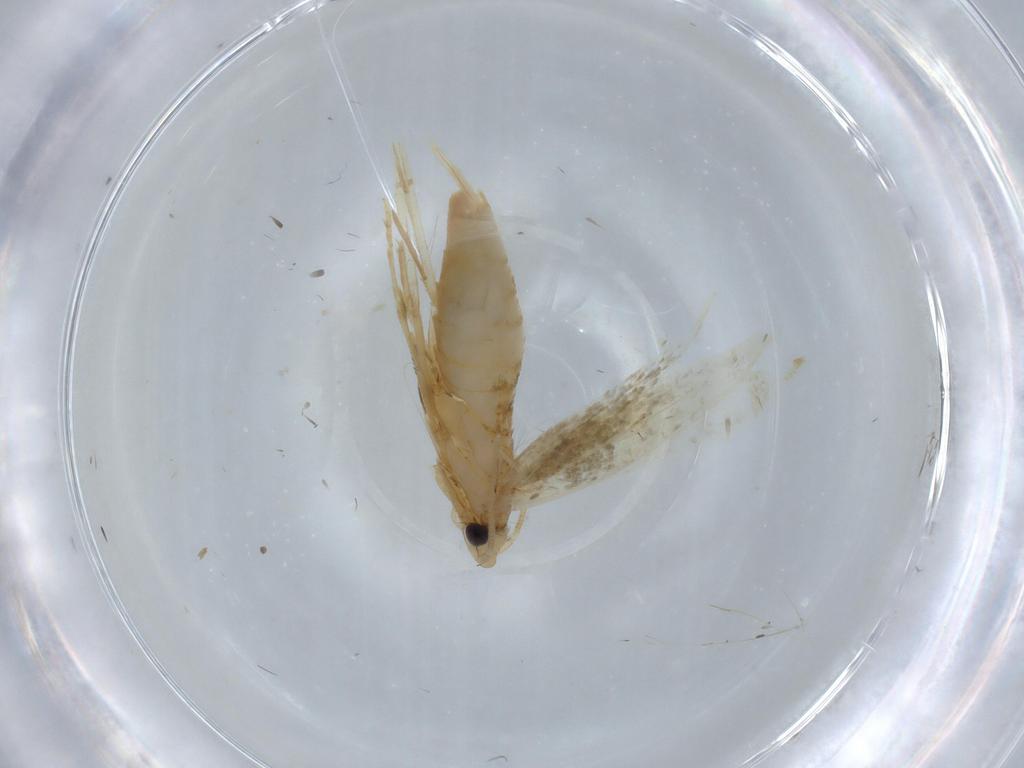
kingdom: Animalia
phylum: Arthropoda
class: Insecta
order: Lepidoptera
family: Tineidae
